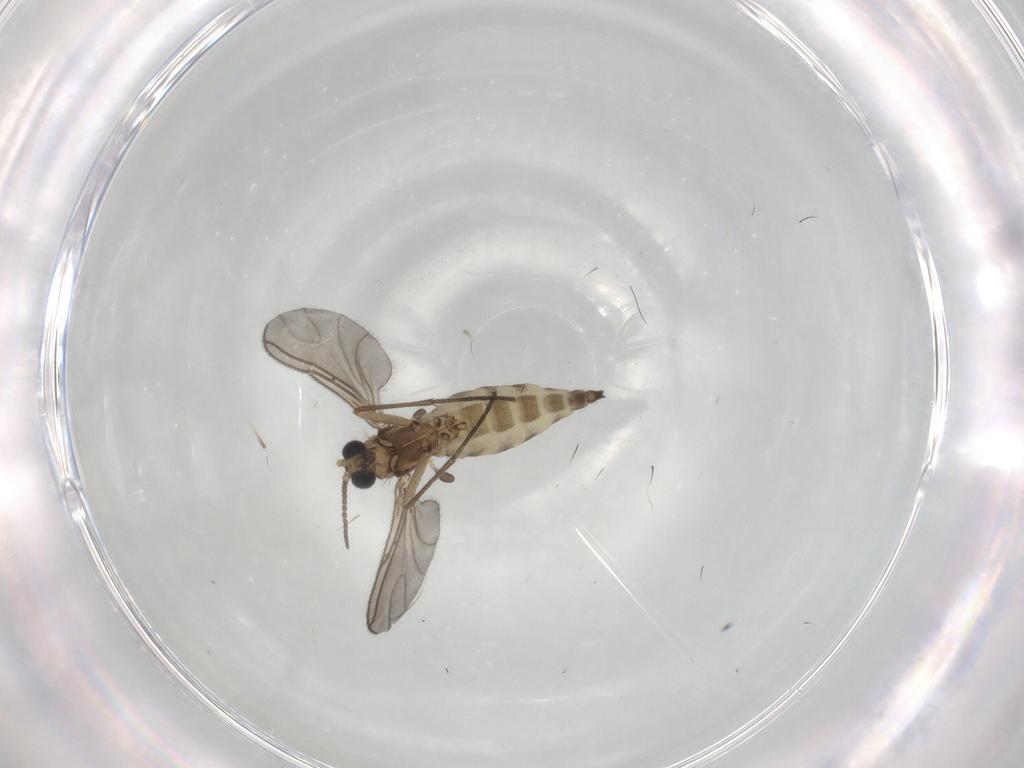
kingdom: Animalia
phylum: Arthropoda
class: Insecta
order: Diptera
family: Sciaridae
